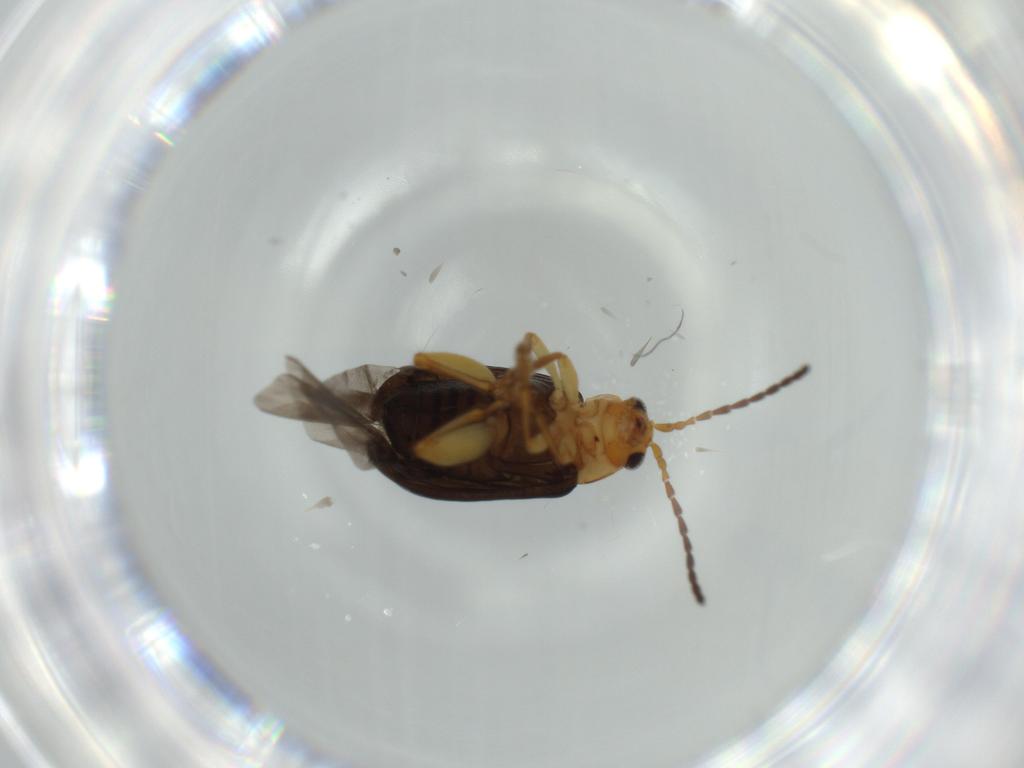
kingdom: Animalia
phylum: Arthropoda
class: Insecta
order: Coleoptera
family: Chrysomelidae
